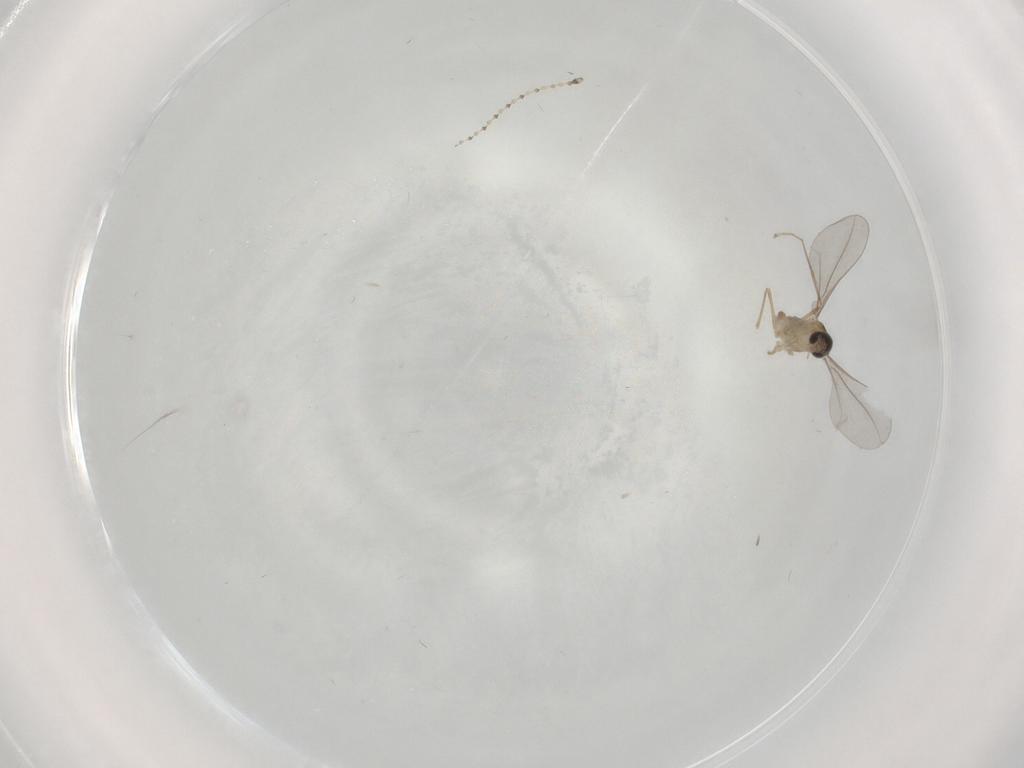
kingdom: Animalia
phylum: Arthropoda
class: Insecta
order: Diptera
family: Cecidomyiidae
